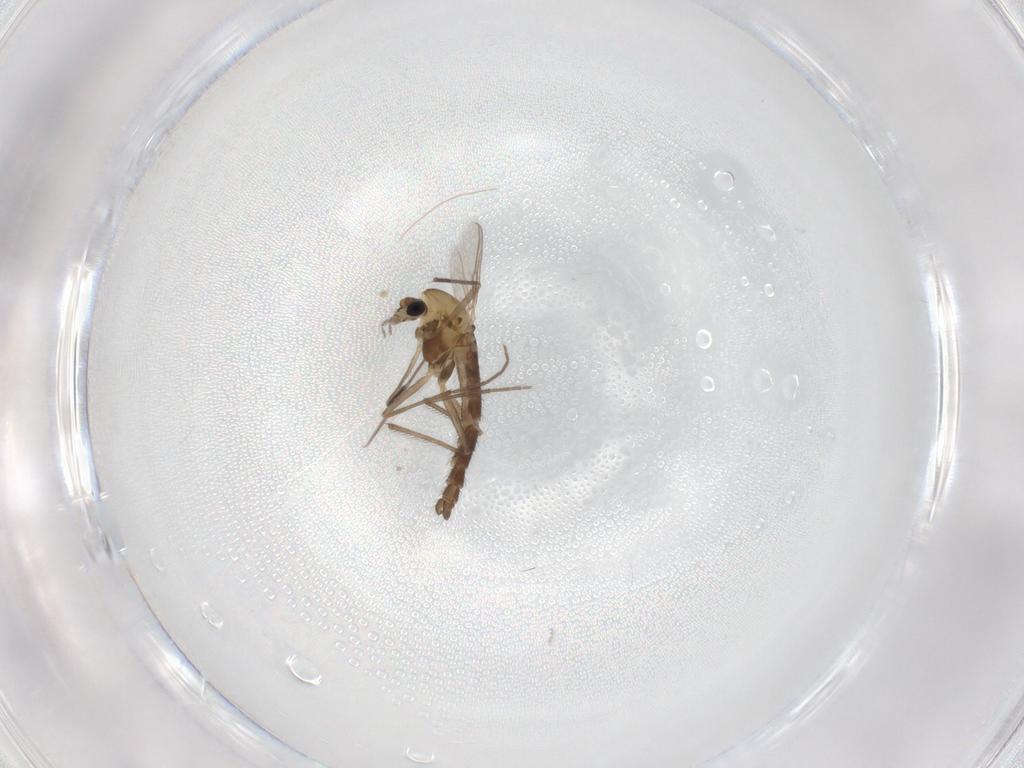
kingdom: Animalia
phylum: Arthropoda
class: Insecta
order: Diptera
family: Chironomidae
